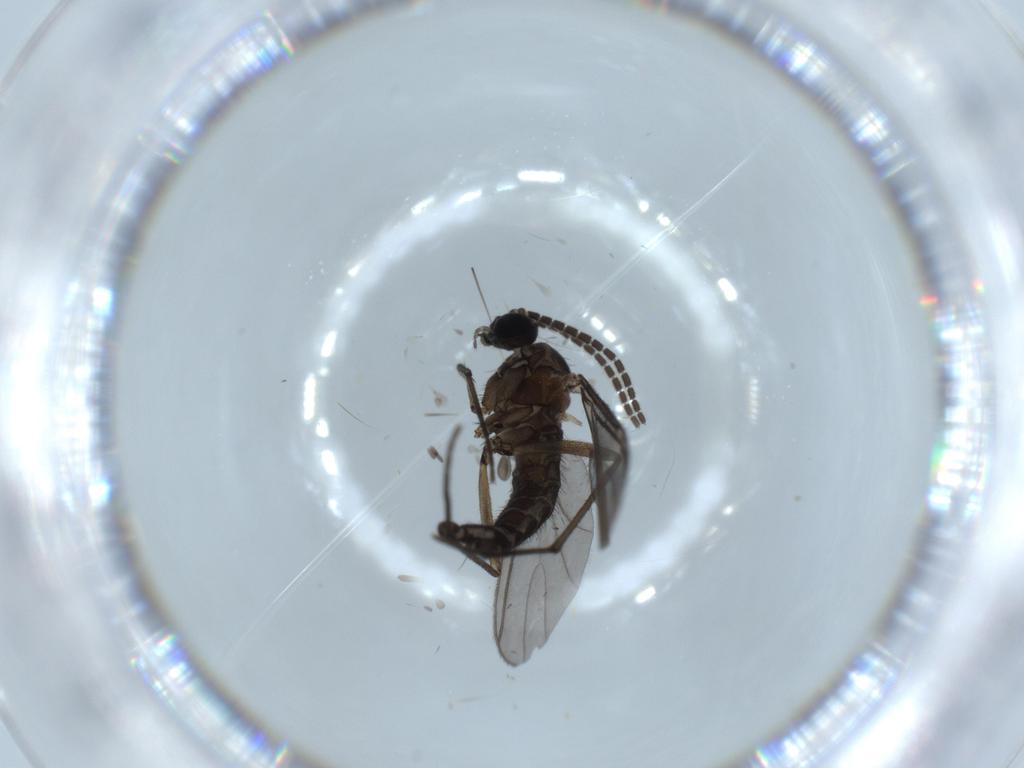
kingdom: Animalia
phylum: Arthropoda
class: Insecta
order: Diptera
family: Sciaridae
